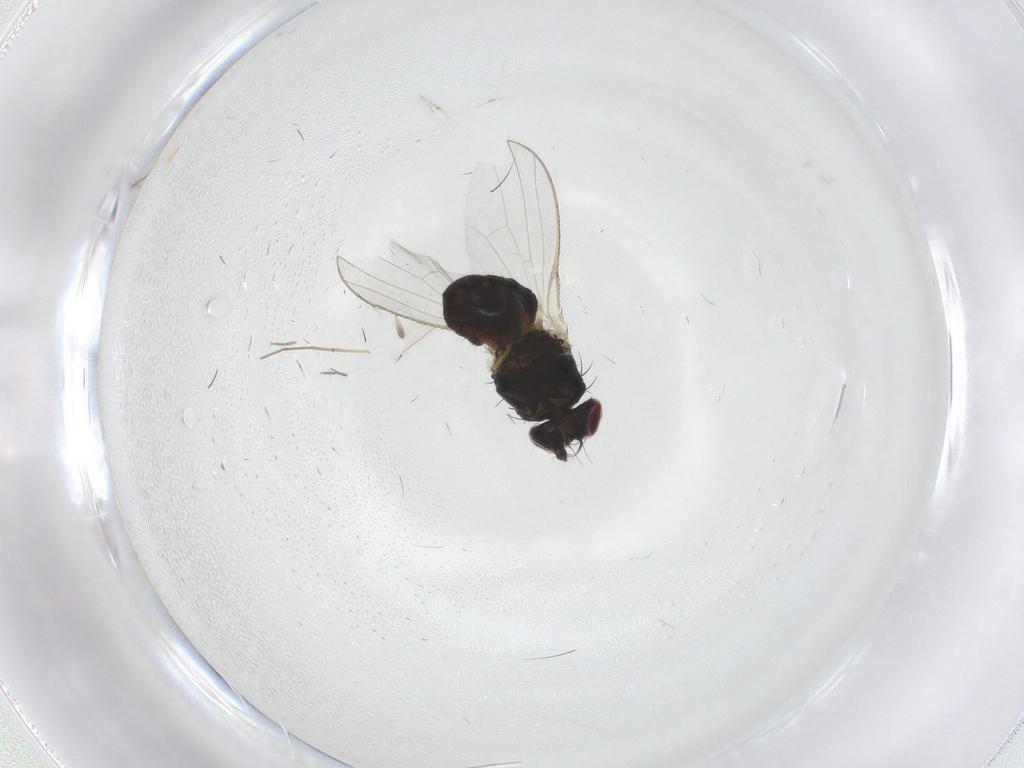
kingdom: Animalia
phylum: Arthropoda
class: Insecta
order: Diptera
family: Carnidae
